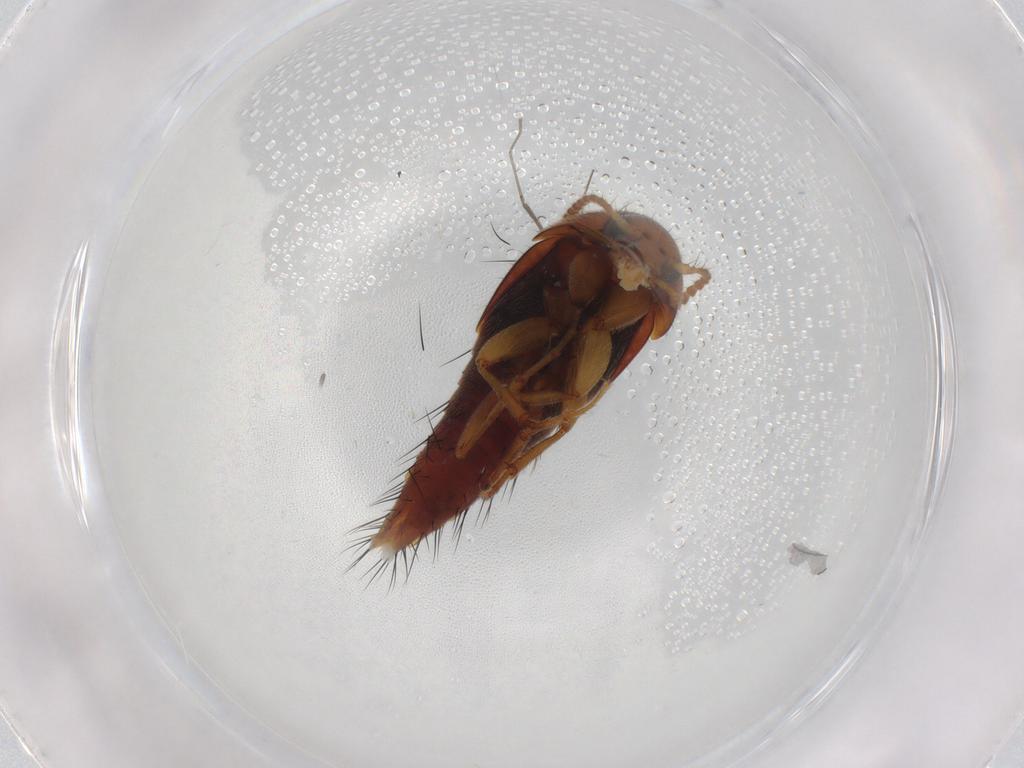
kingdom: Animalia
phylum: Arthropoda
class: Insecta
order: Coleoptera
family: Staphylinidae
